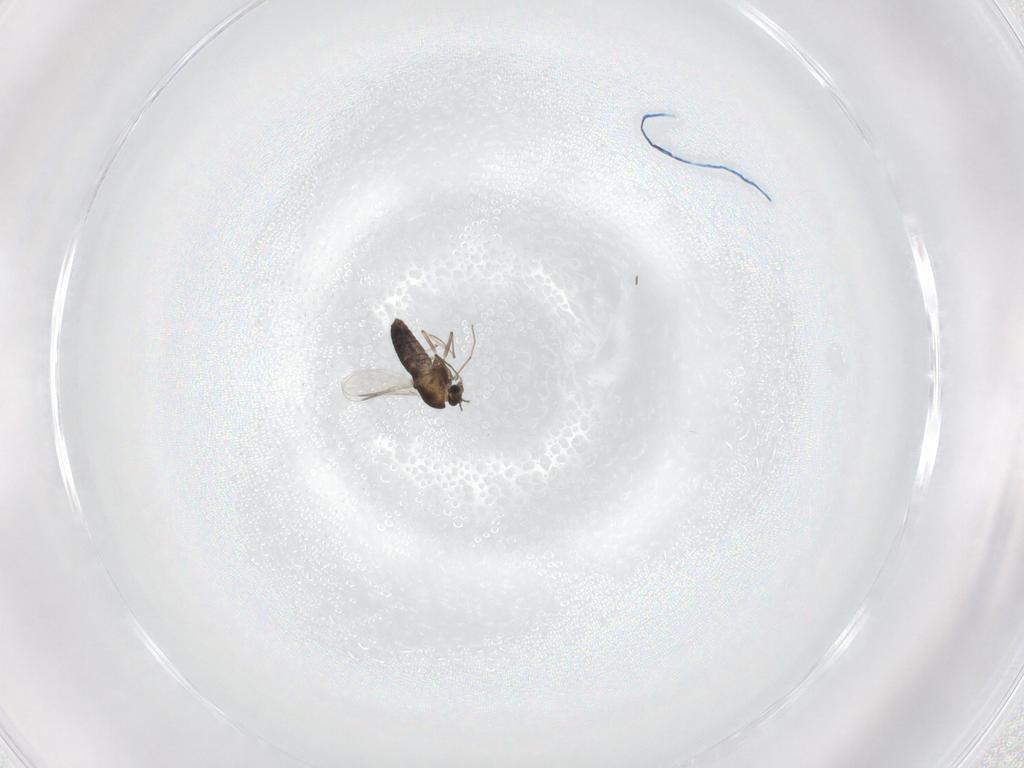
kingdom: Animalia
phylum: Arthropoda
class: Insecta
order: Diptera
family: Chironomidae
